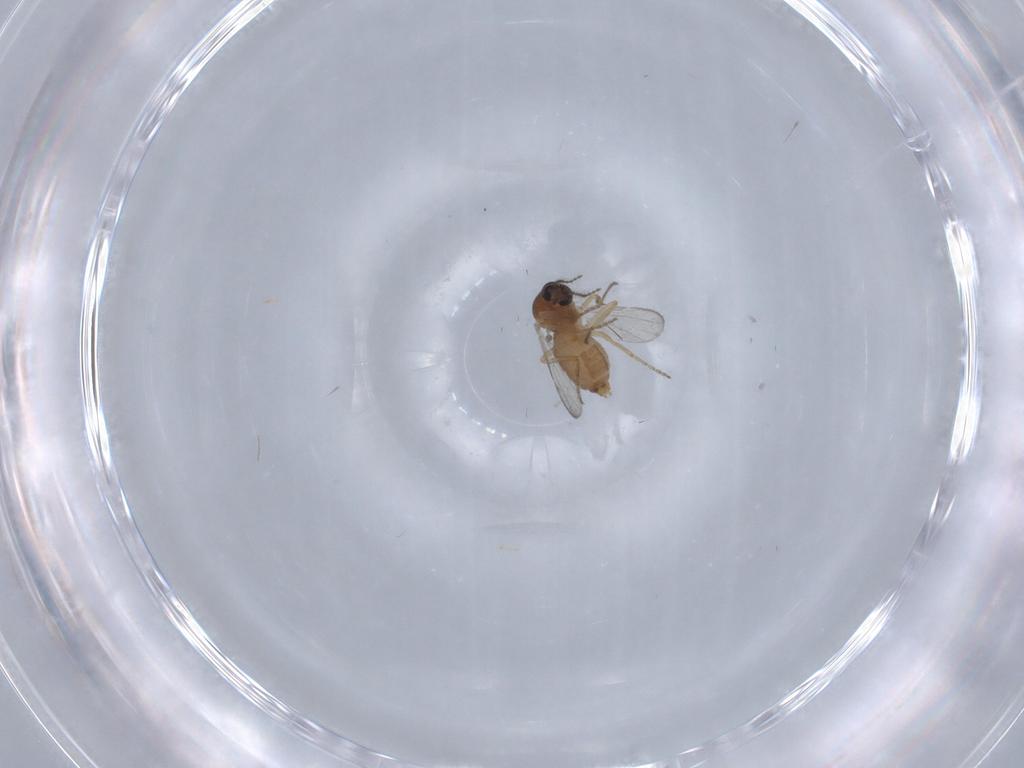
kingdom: Animalia
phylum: Arthropoda
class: Insecta
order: Diptera
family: Ceratopogonidae
